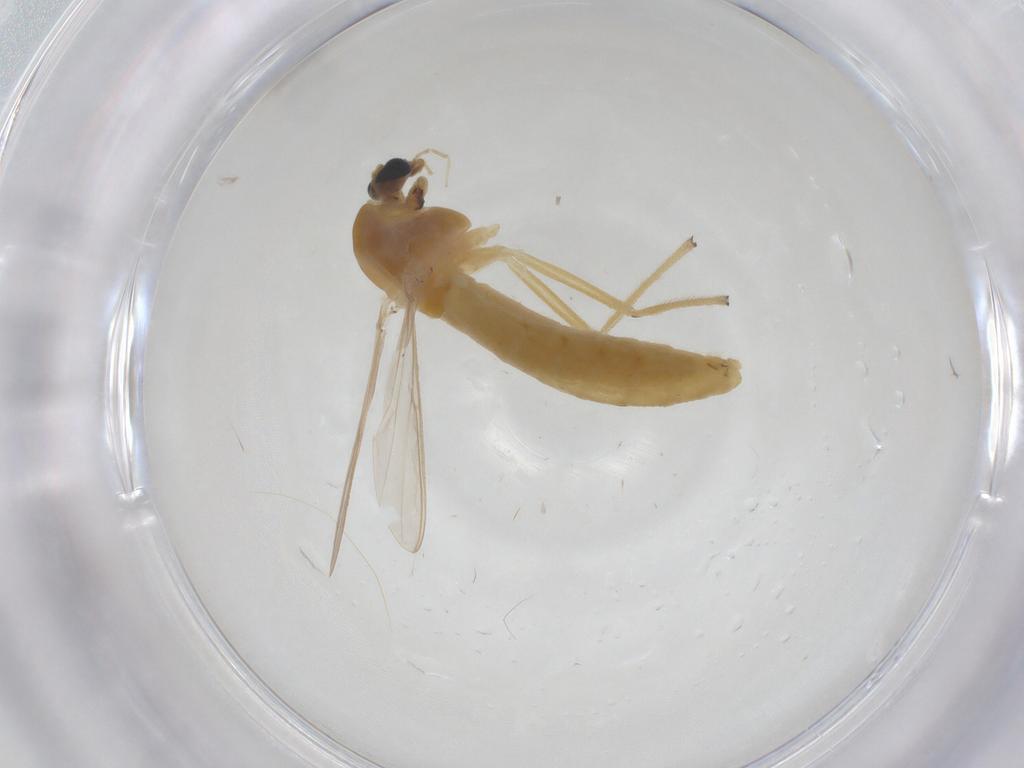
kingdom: Animalia
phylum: Arthropoda
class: Insecta
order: Diptera
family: Chironomidae
